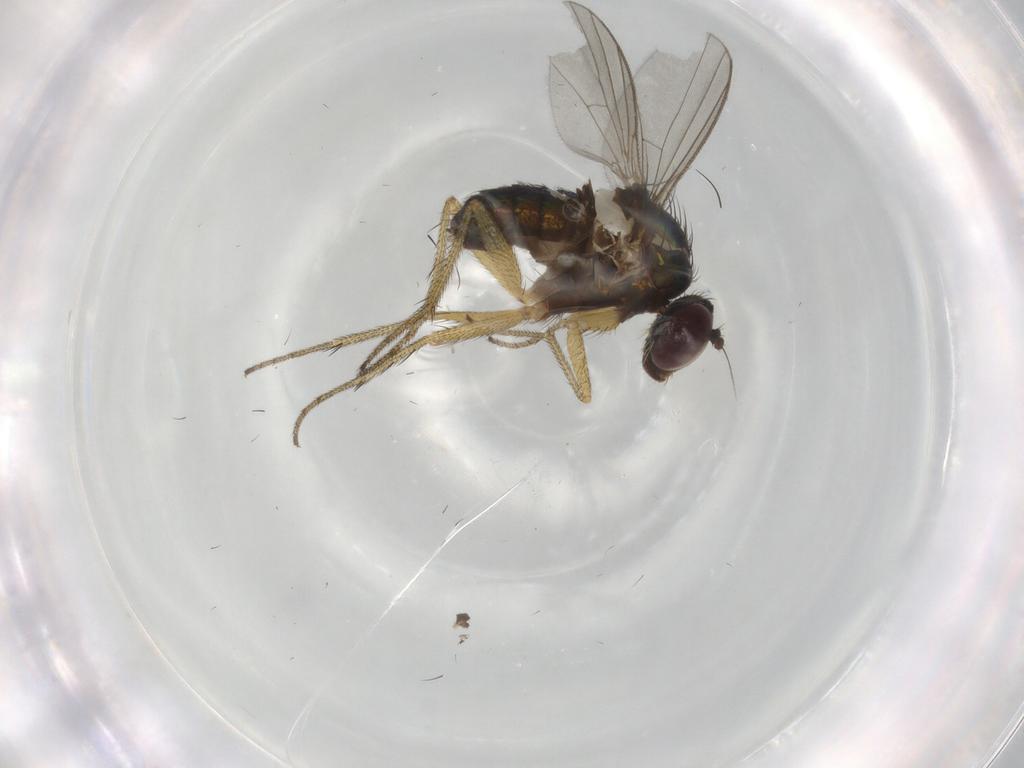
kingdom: Animalia
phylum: Arthropoda
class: Insecta
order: Diptera
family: Dolichopodidae
